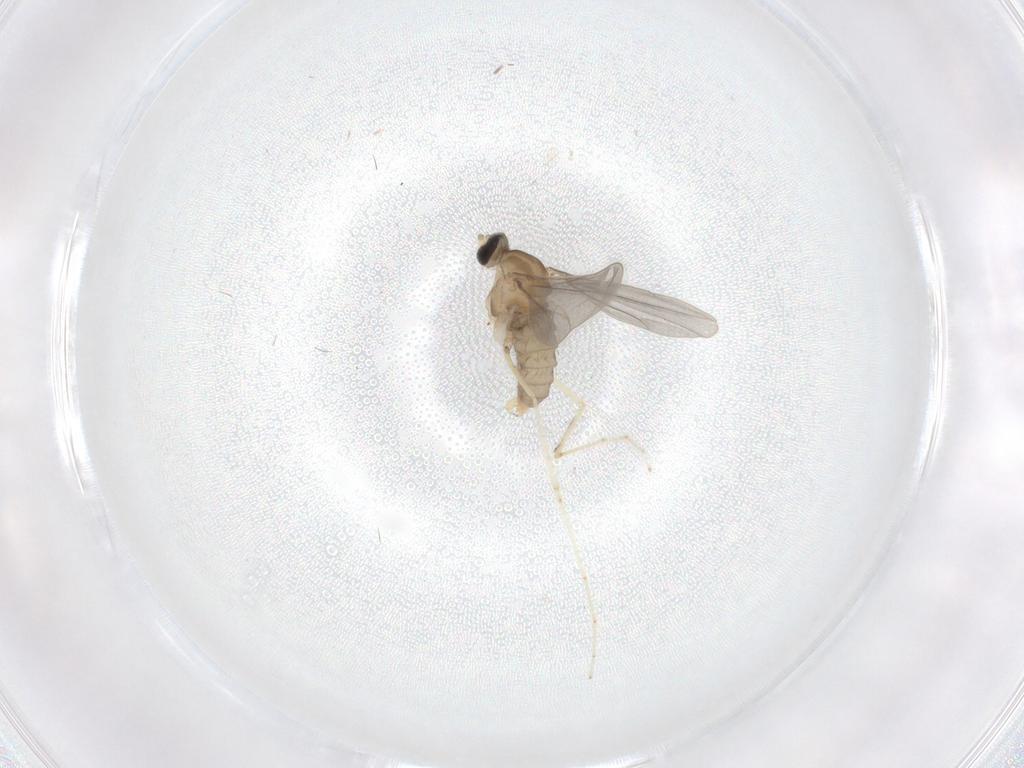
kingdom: Animalia
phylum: Arthropoda
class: Insecta
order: Diptera
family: Cecidomyiidae
